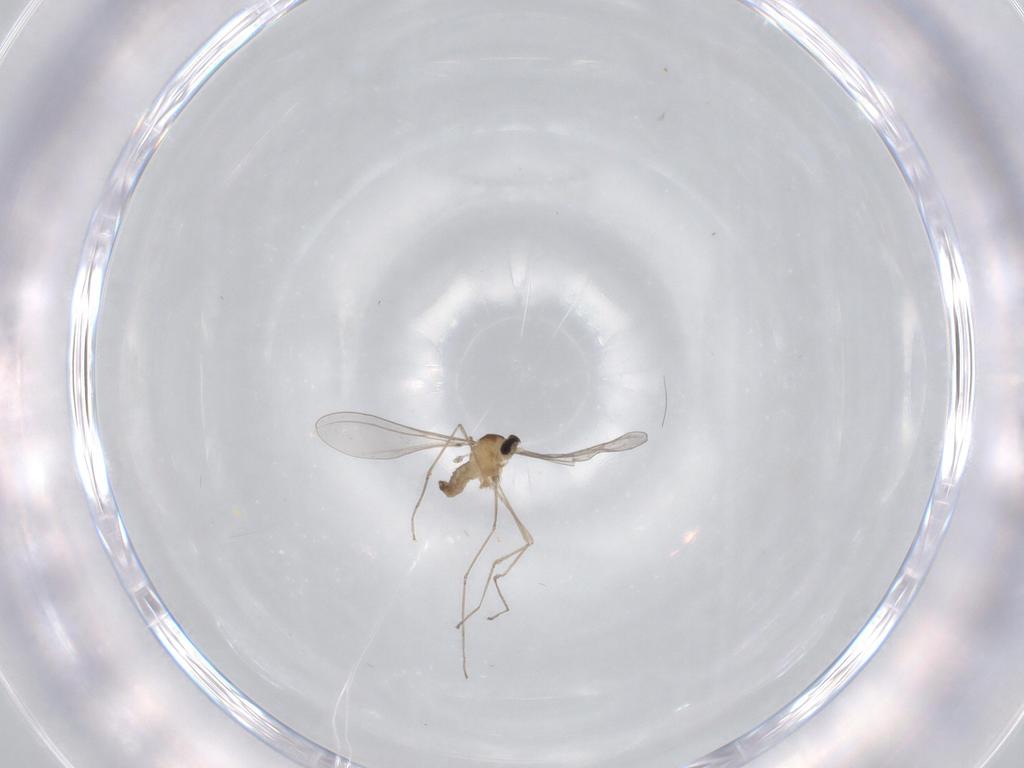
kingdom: Animalia
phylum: Arthropoda
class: Insecta
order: Diptera
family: Cecidomyiidae
